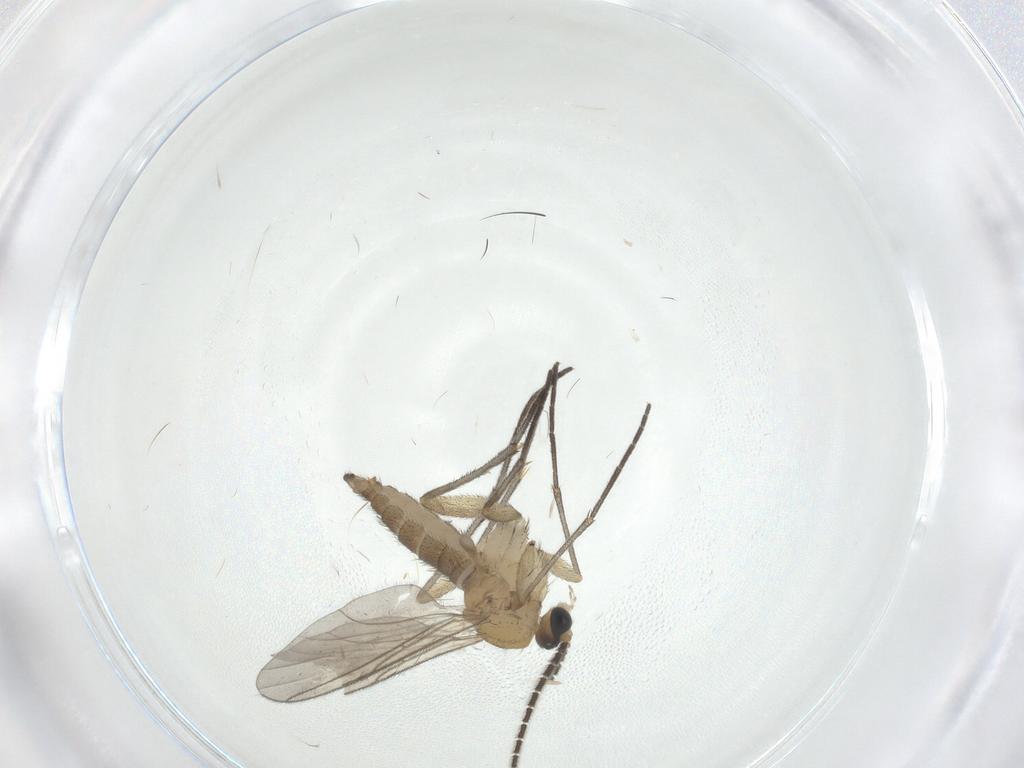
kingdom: Animalia
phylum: Arthropoda
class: Insecta
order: Diptera
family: Sciaridae
